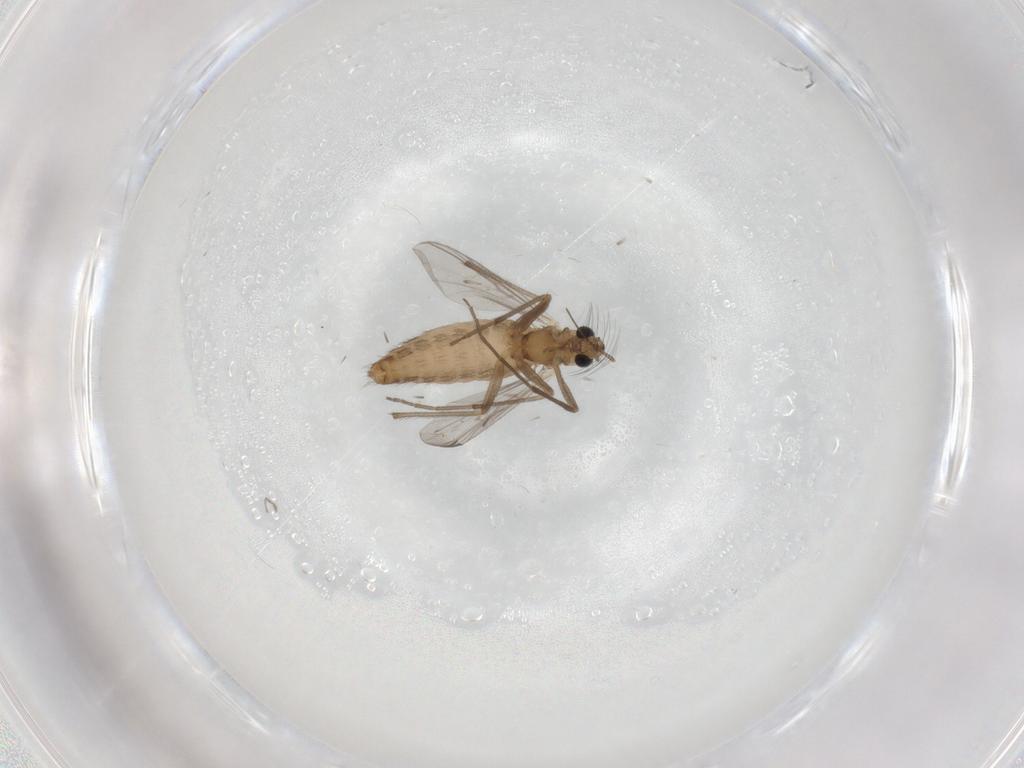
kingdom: Animalia
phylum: Arthropoda
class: Insecta
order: Diptera
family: Chironomidae
